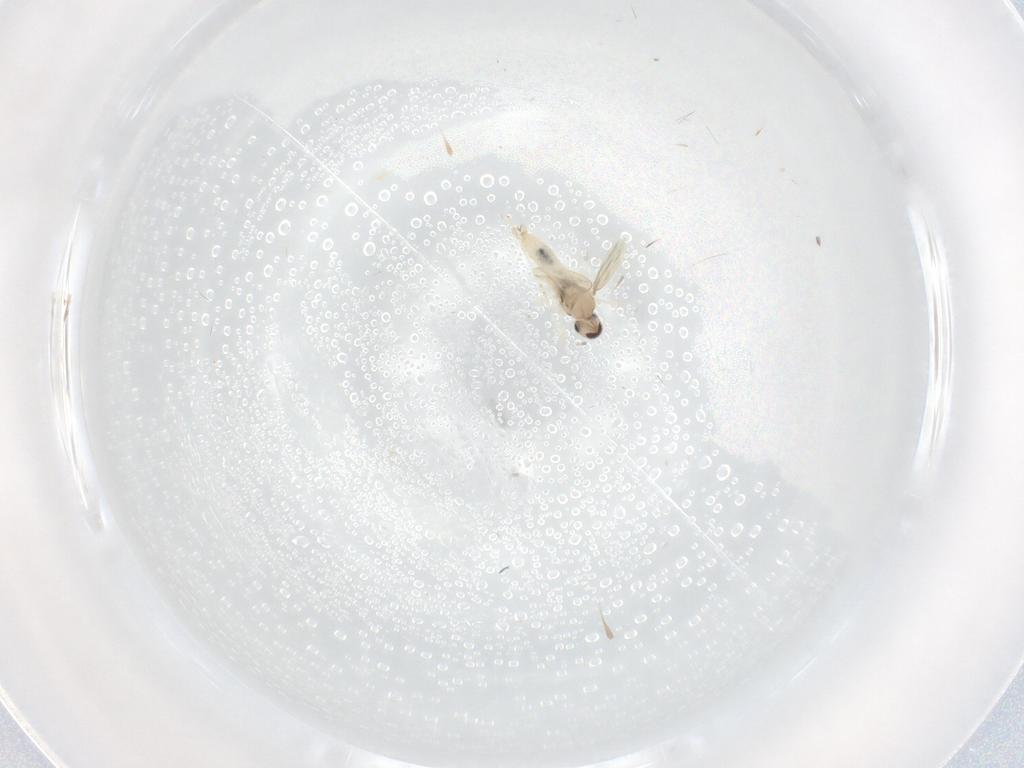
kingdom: Animalia
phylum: Arthropoda
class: Insecta
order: Diptera
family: Cecidomyiidae
